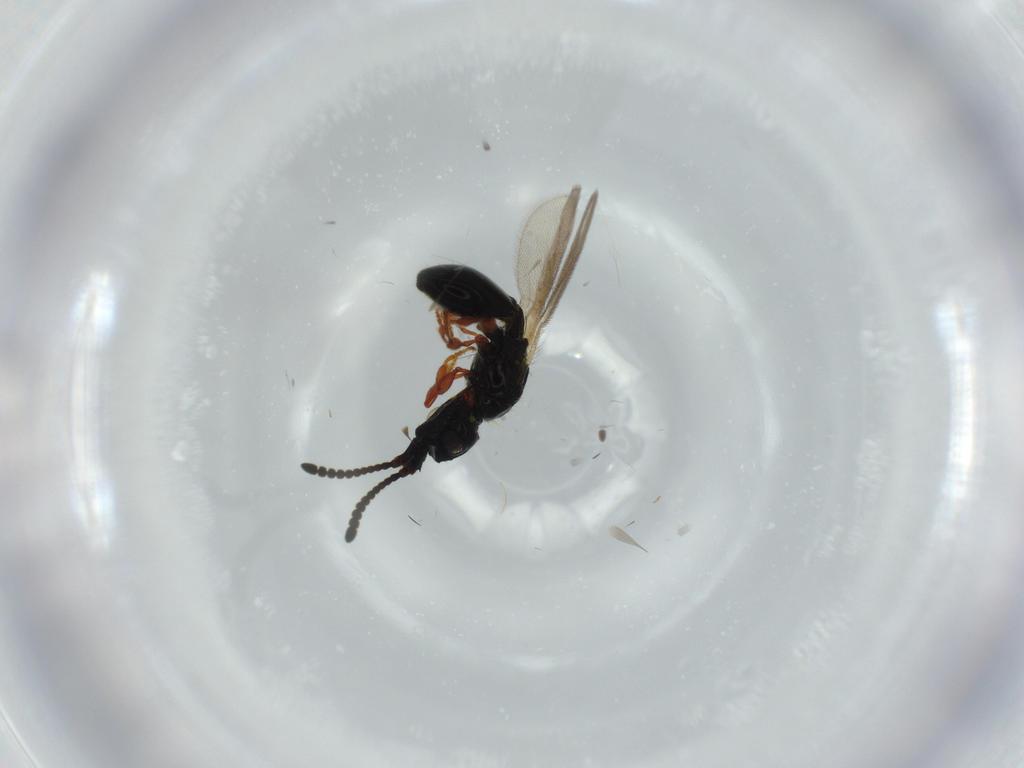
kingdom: Animalia
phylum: Arthropoda
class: Insecta
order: Hymenoptera
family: Diapriidae
